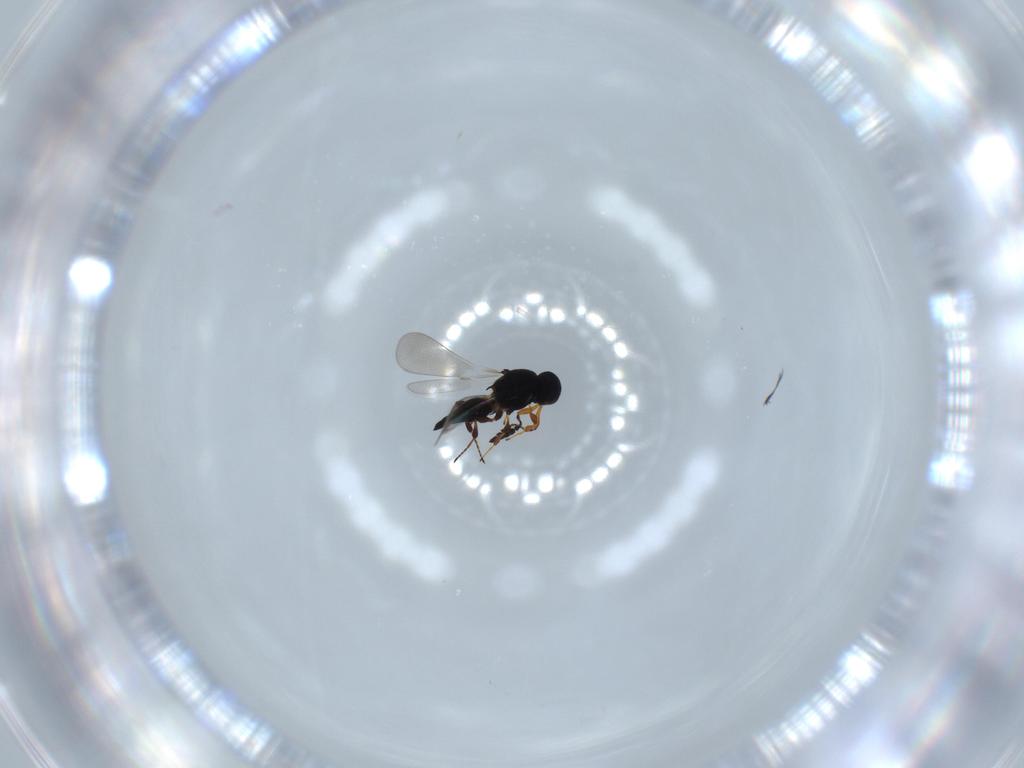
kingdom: Animalia
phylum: Arthropoda
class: Insecta
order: Hymenoptera
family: Platygastridae
